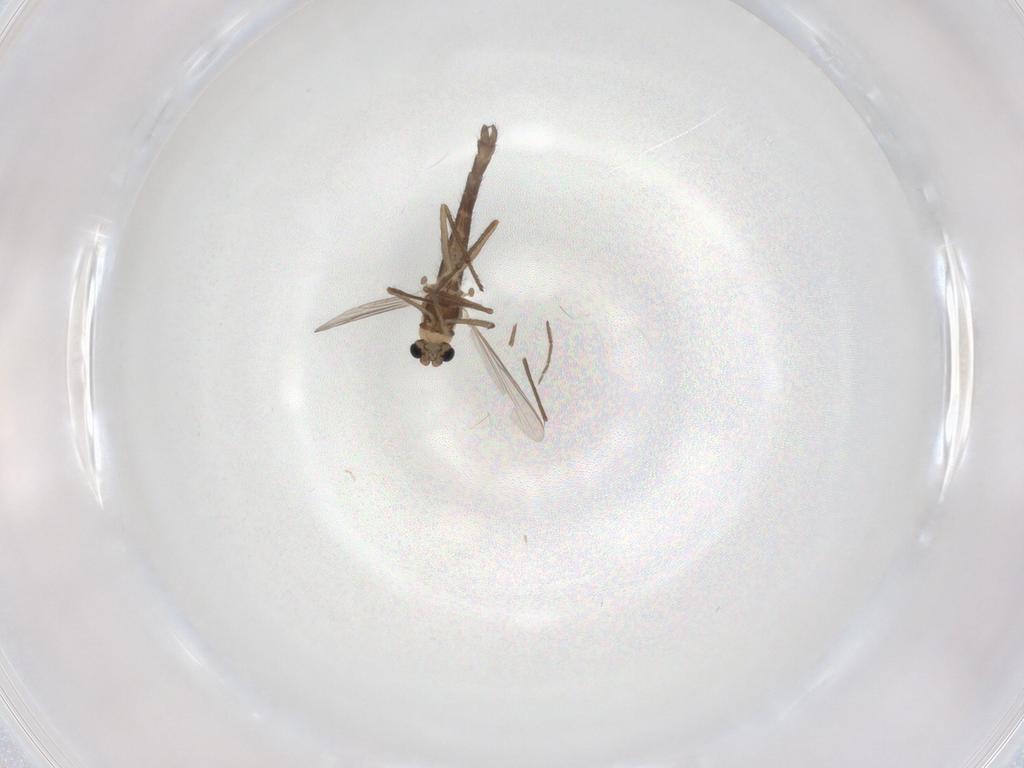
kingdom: Animalia
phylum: Arthropoda
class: Insecta
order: Diptera
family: Chironomidae
